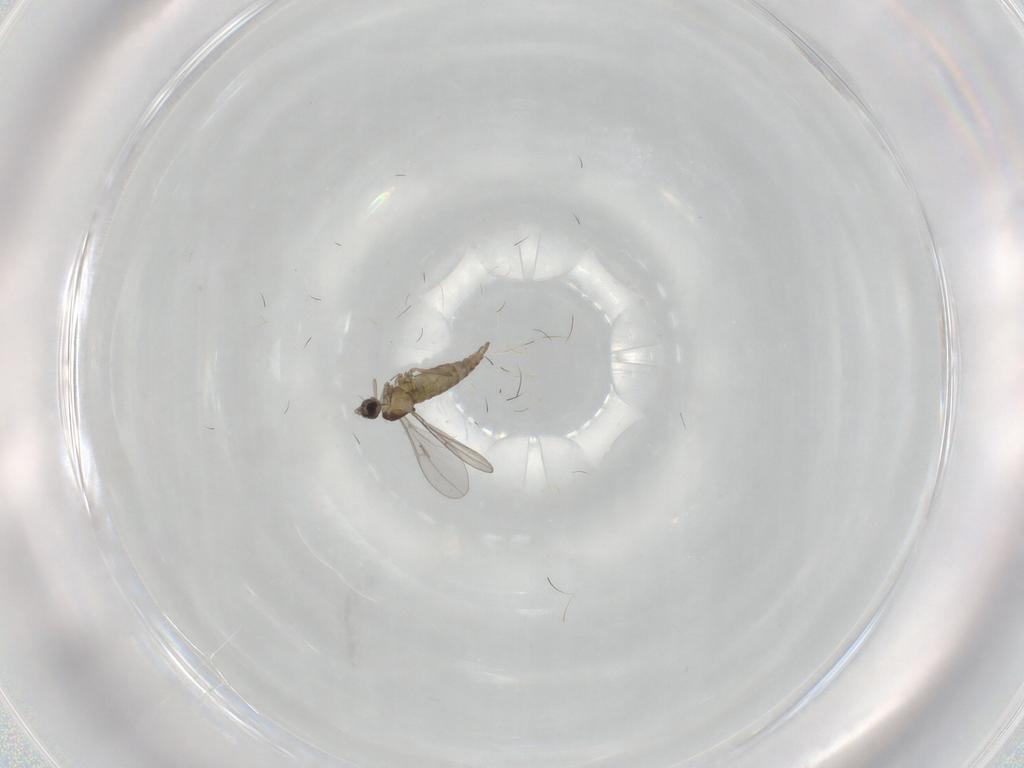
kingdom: Animalia
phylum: Arthropoda
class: Insecta
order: Diptera
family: Cecidomyiidae
